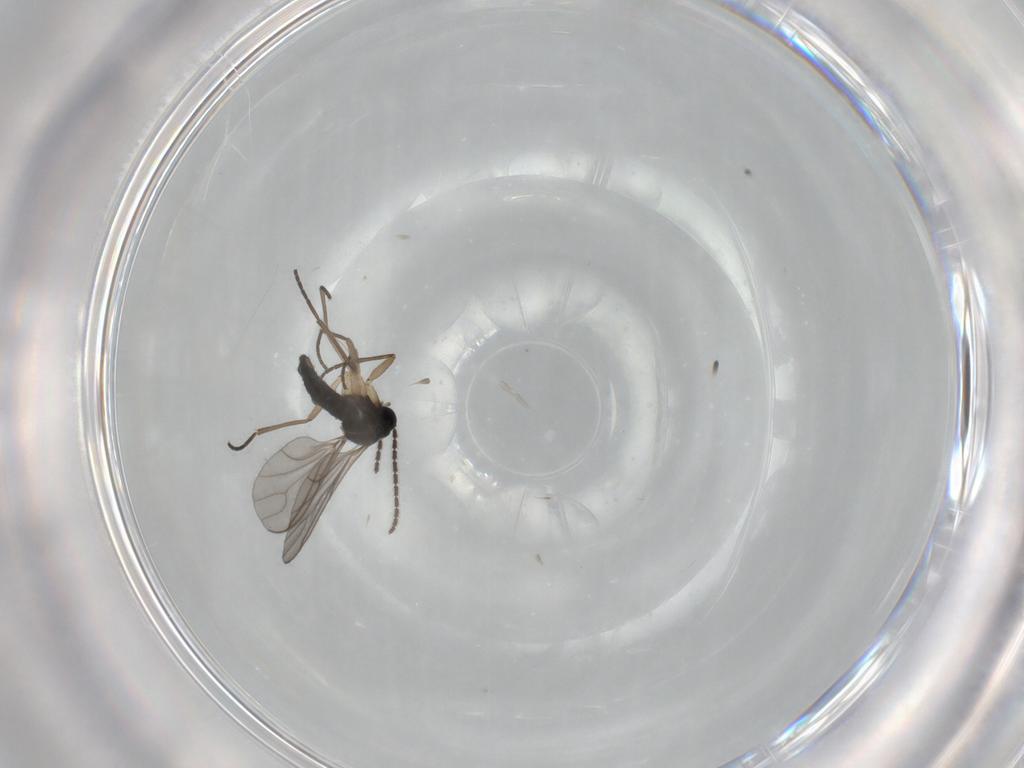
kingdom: Animalia
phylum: Arthropoda
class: Insecta
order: Diptera
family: Sciaridae
